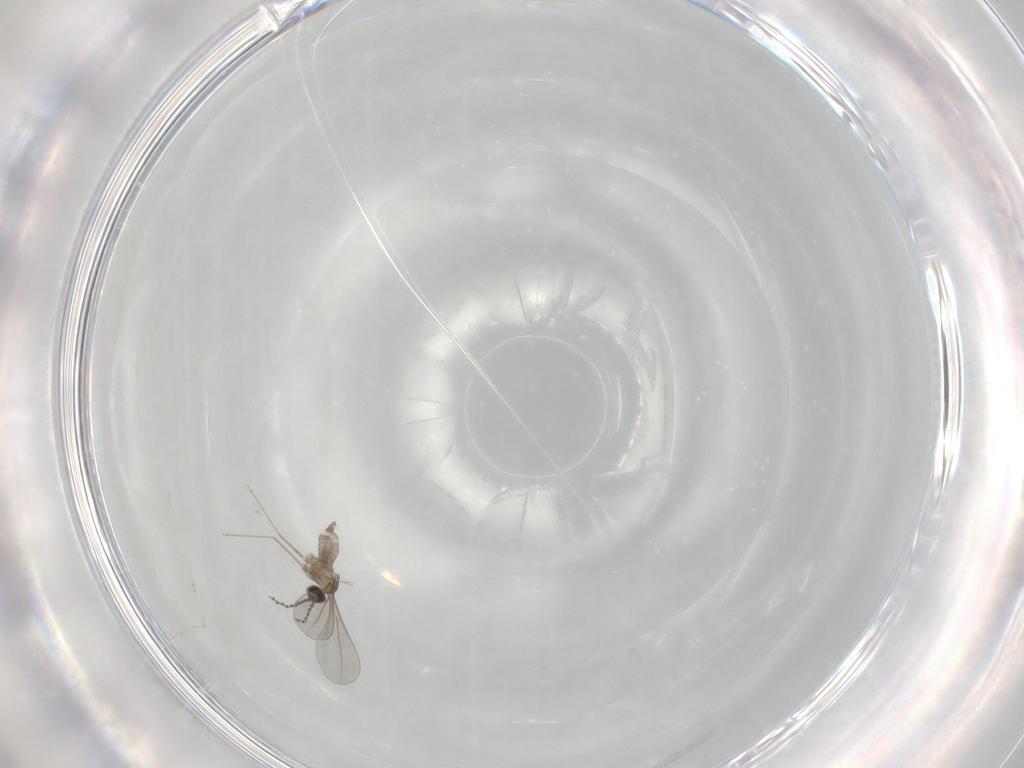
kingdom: Animalia
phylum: Arthropoda
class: Insecta
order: Diptera
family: Cecidomyiidae
